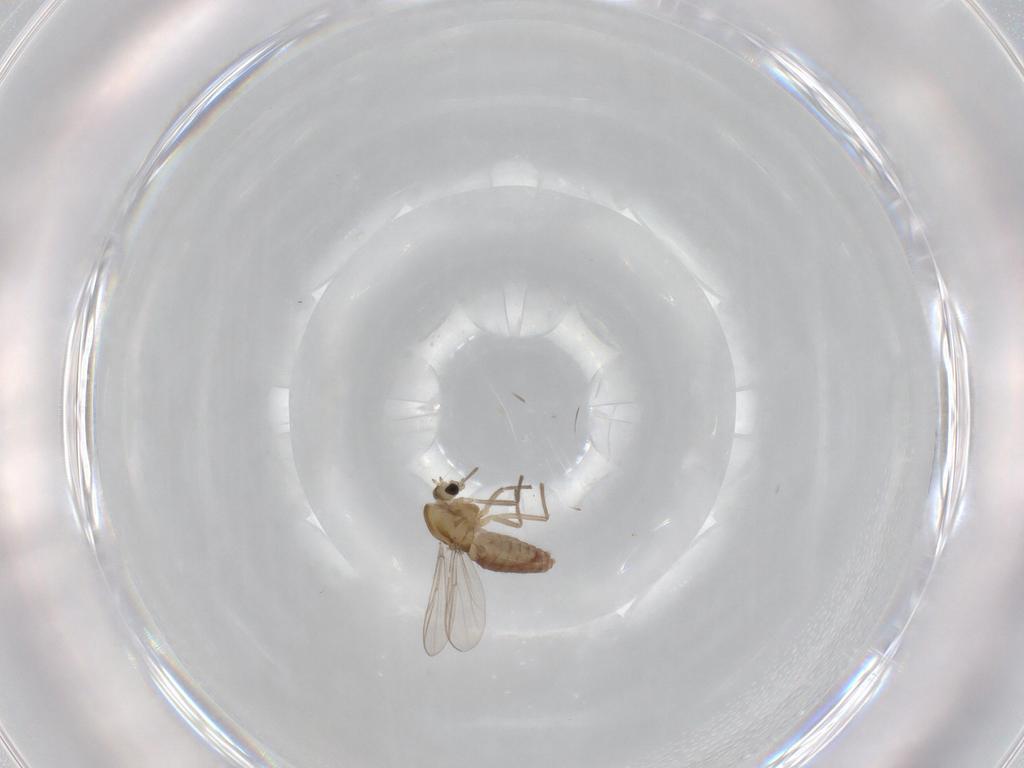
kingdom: Animalia
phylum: Arthropoda
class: Insecta
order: Diptera
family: Chironomidae
